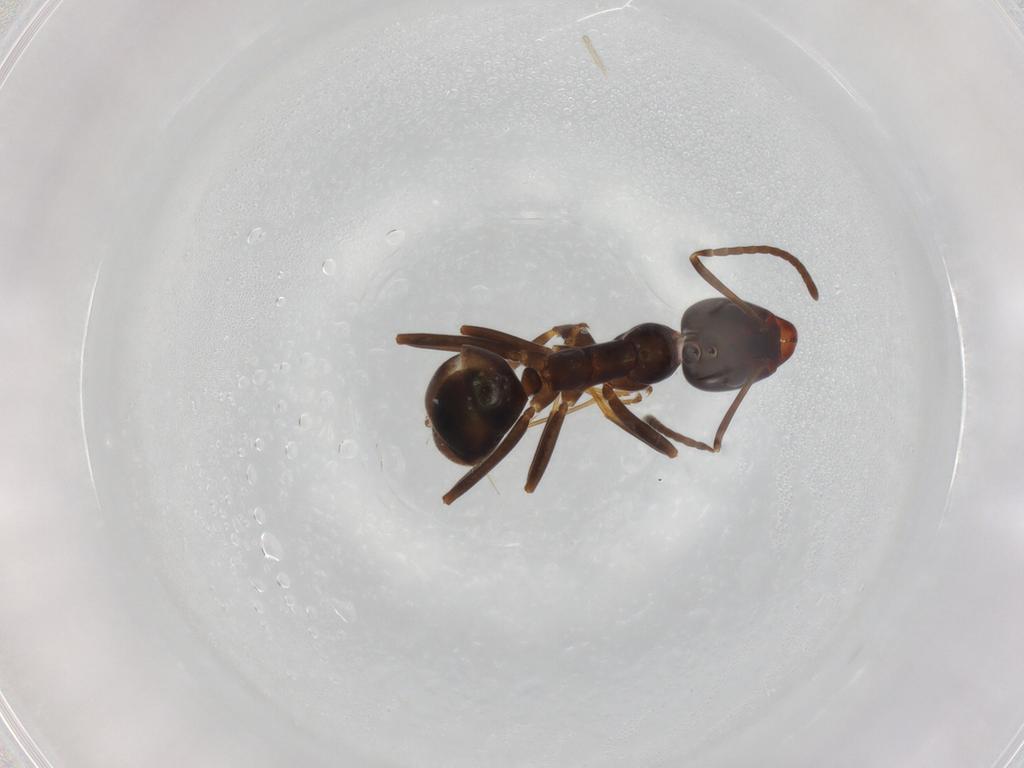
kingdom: Animalia
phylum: Arthropoda
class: Insecta
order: Hymenoptera
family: Formicidae
